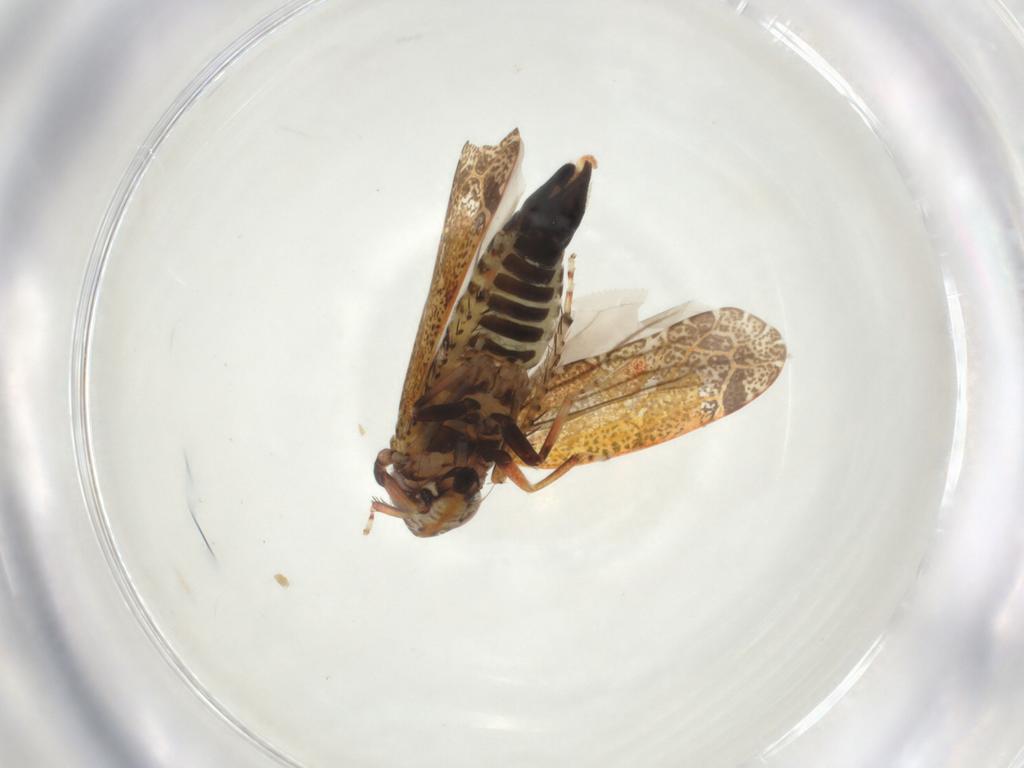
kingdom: Animalia
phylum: Arthropoda
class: Insecta
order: Hemiptera
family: Cicadellidae
